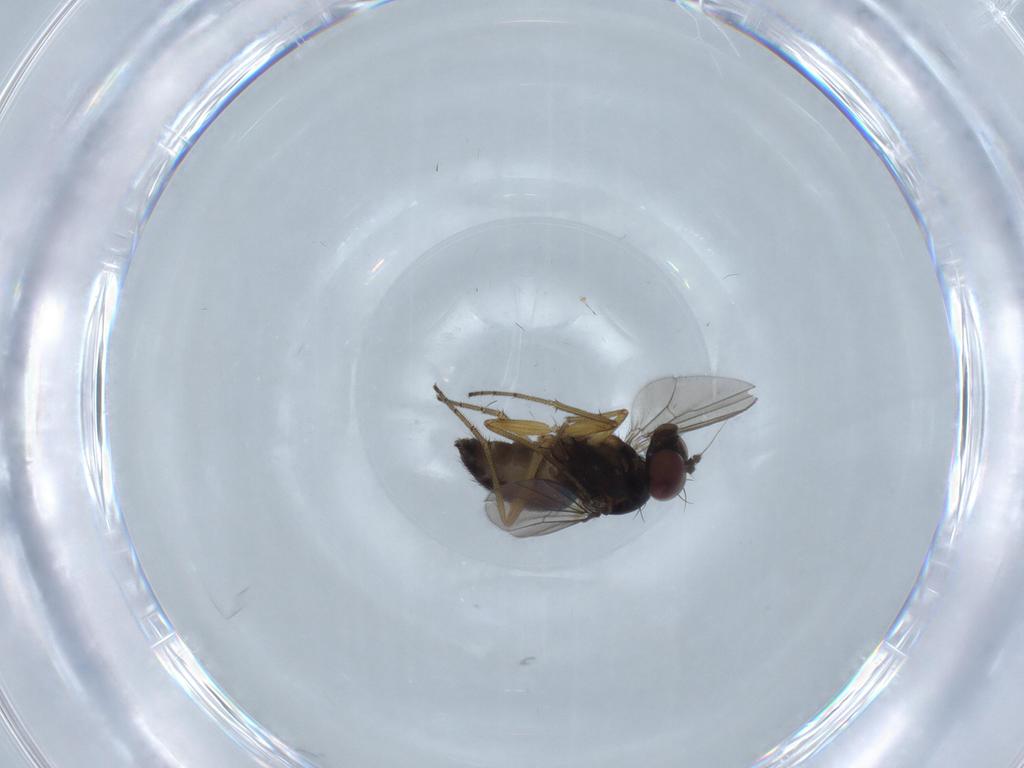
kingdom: Animalia
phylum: Arthropoda
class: Insecta
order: Diptera
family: Dolichopodidae
